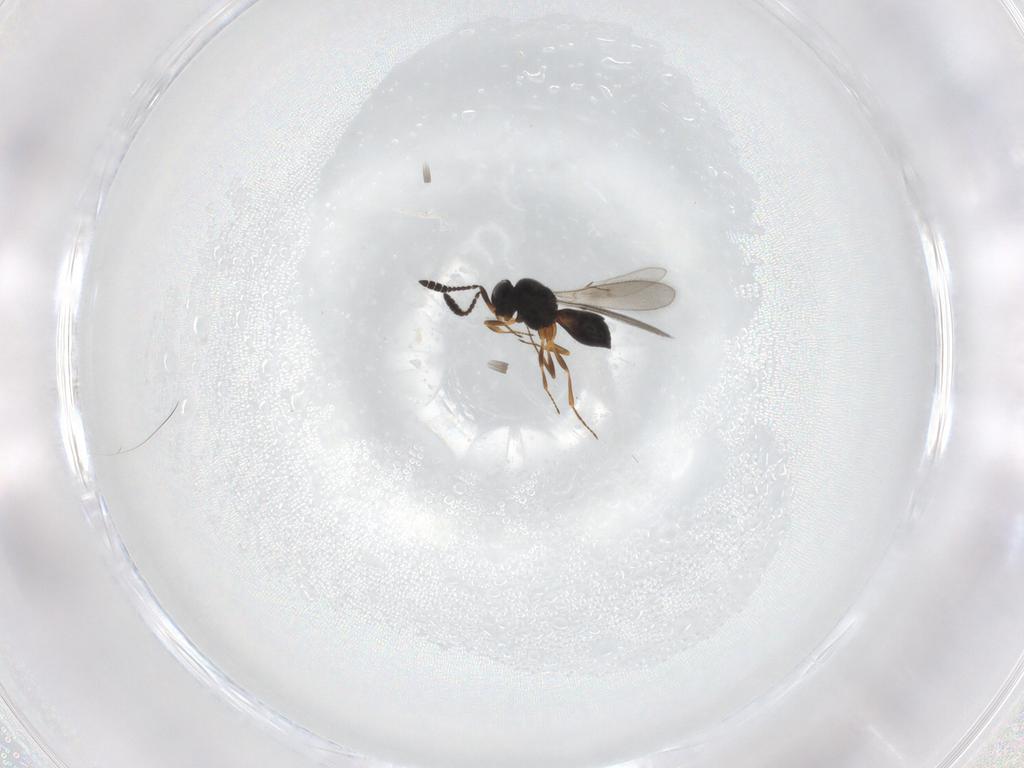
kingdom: Animalia
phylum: Arthropoda
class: Insecta
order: Hymenoptera
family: Scelionidae
